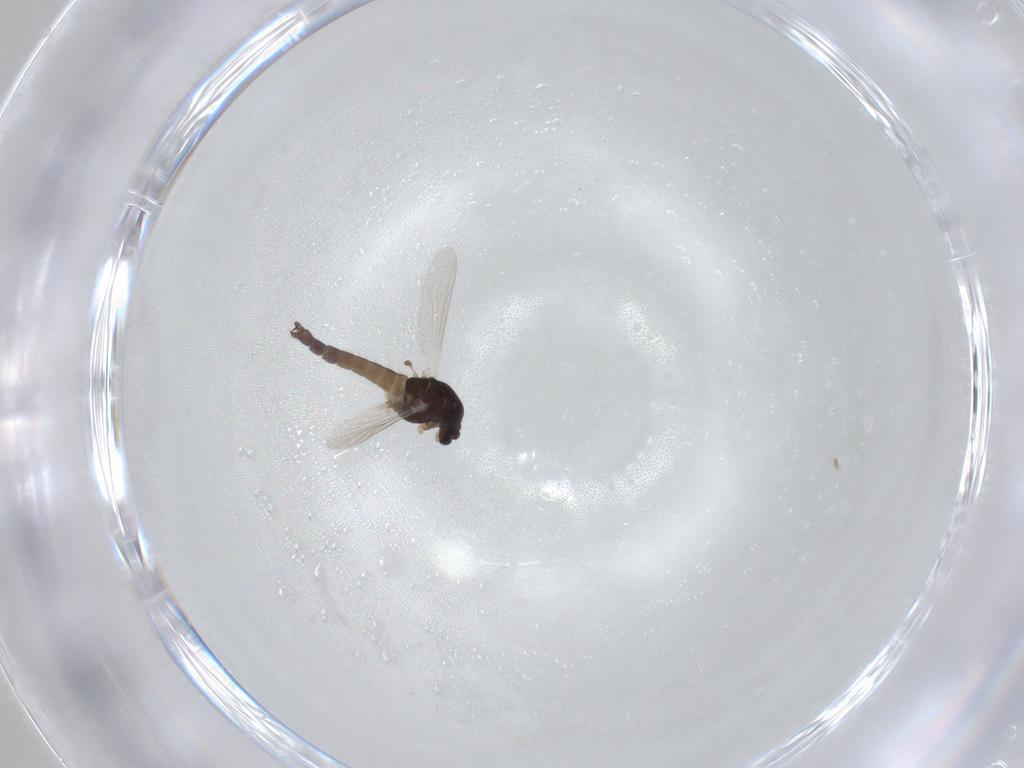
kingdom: Animalia
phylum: Arthropoda
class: Insecta
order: Diptera
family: Chironomidae
